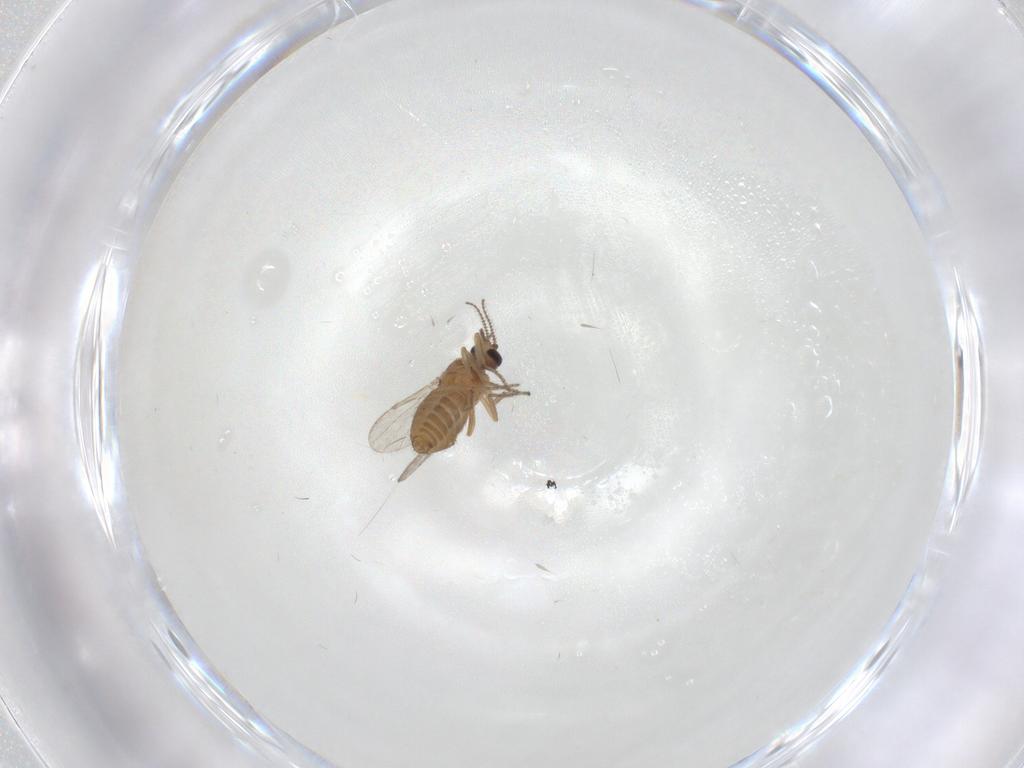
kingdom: Animalia
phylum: Arthropoda
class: Insecta
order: Diptera
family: Ceratopogonidae
